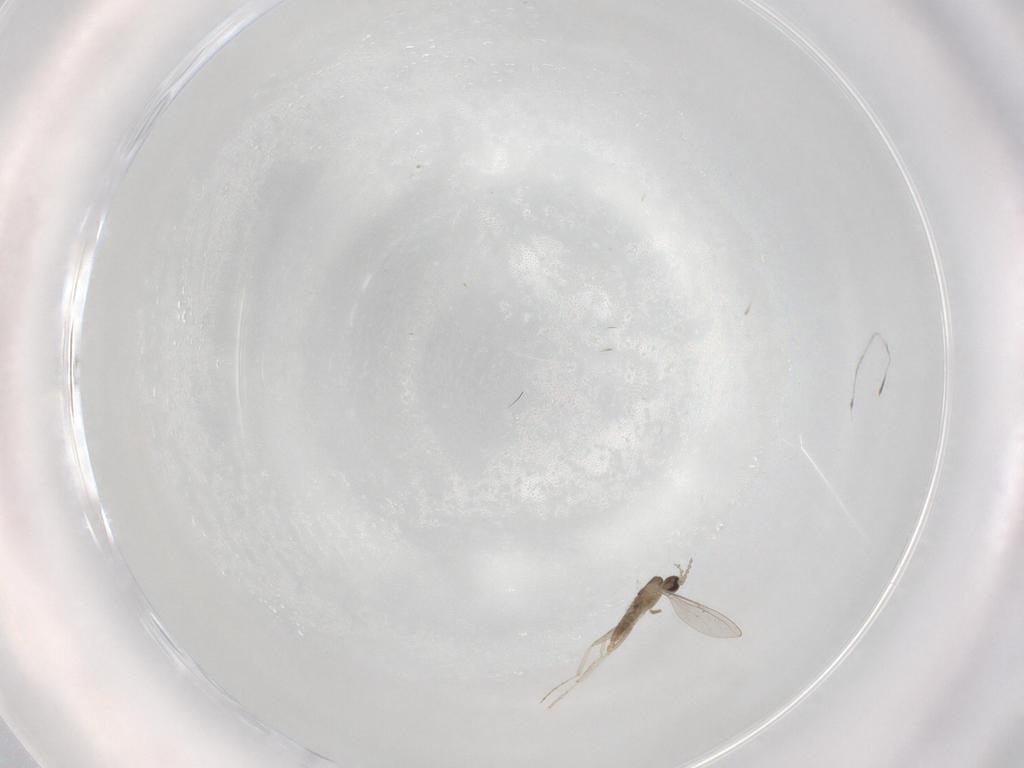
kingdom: Animalia
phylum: Arthropoda
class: Insecta
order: Diptera
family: Cecidomyiidae
